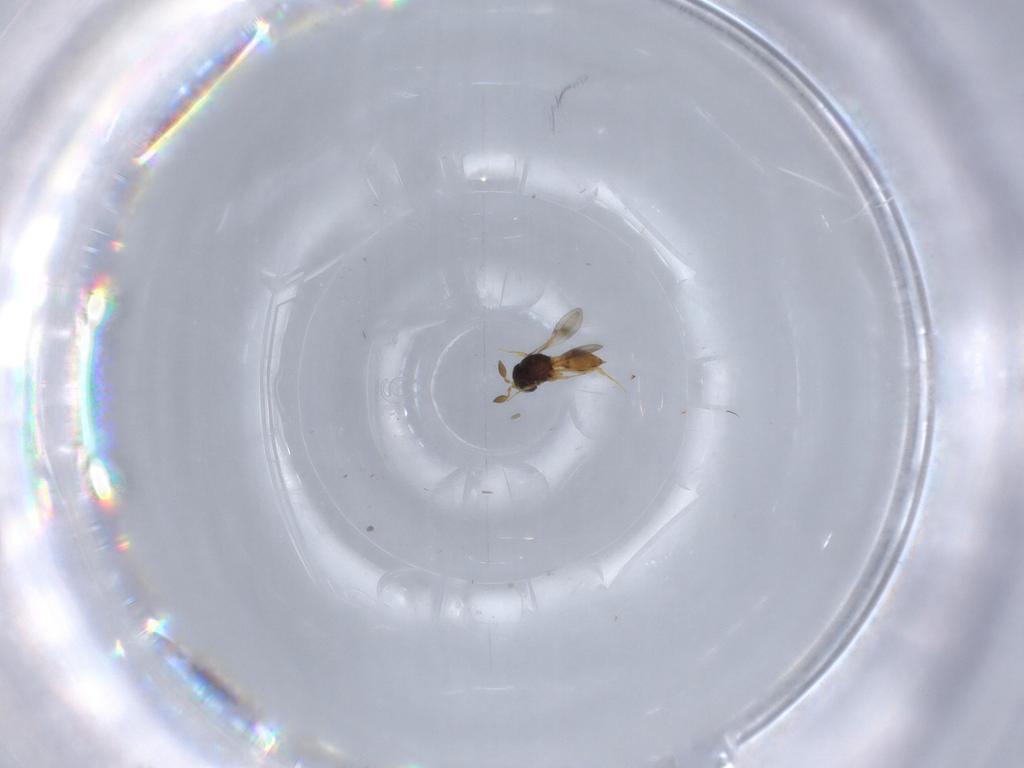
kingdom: Animalia
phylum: Arthropoda
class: Insecta
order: Hymenoptera
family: Scelionidae
